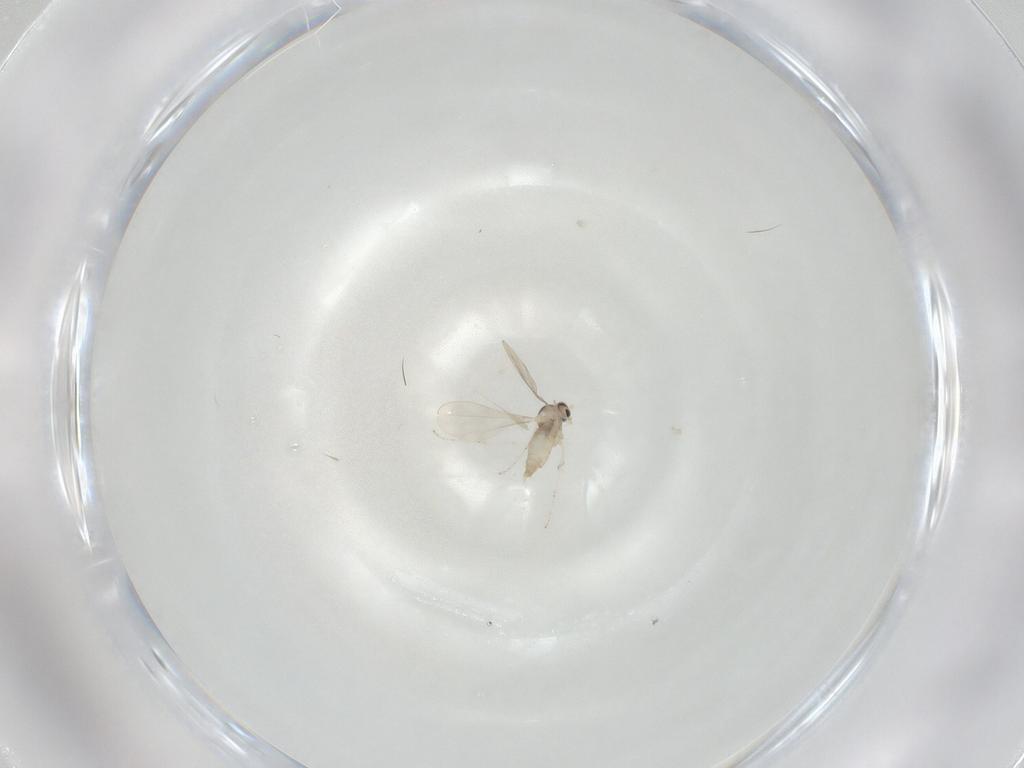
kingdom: Animalia
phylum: Arthropoda
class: Insecta
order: Diptera
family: Cecidomyiidae
